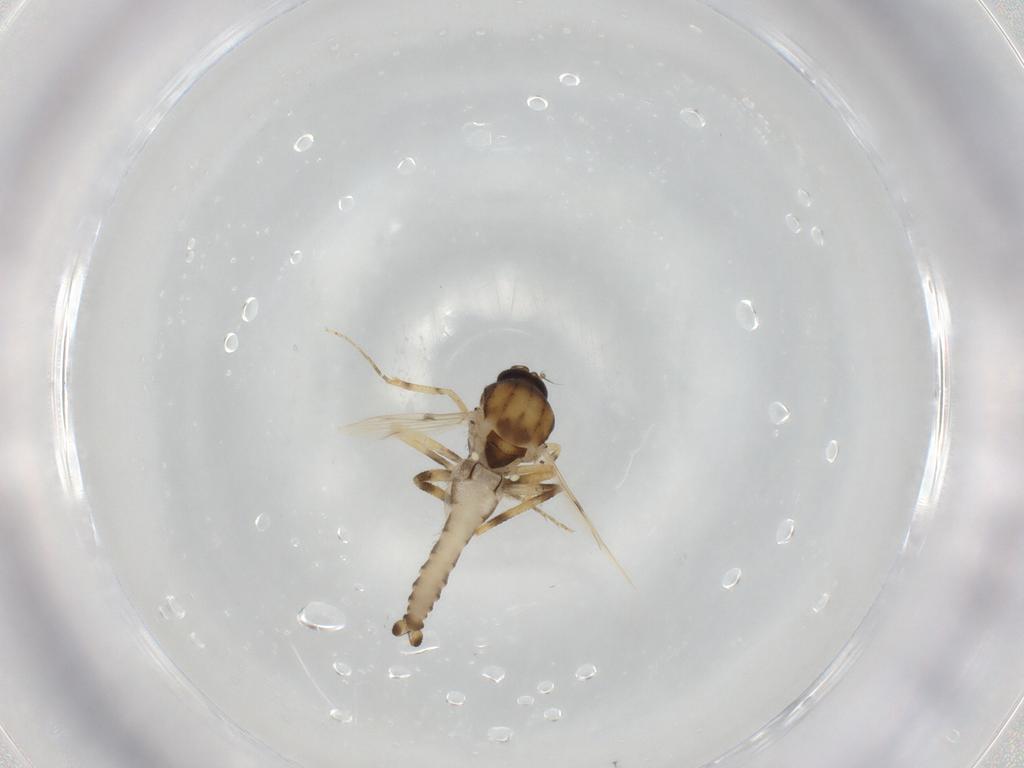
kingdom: Animalia
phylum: Arthropoda
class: Insecta
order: Diptera
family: Ceratopogonidae
